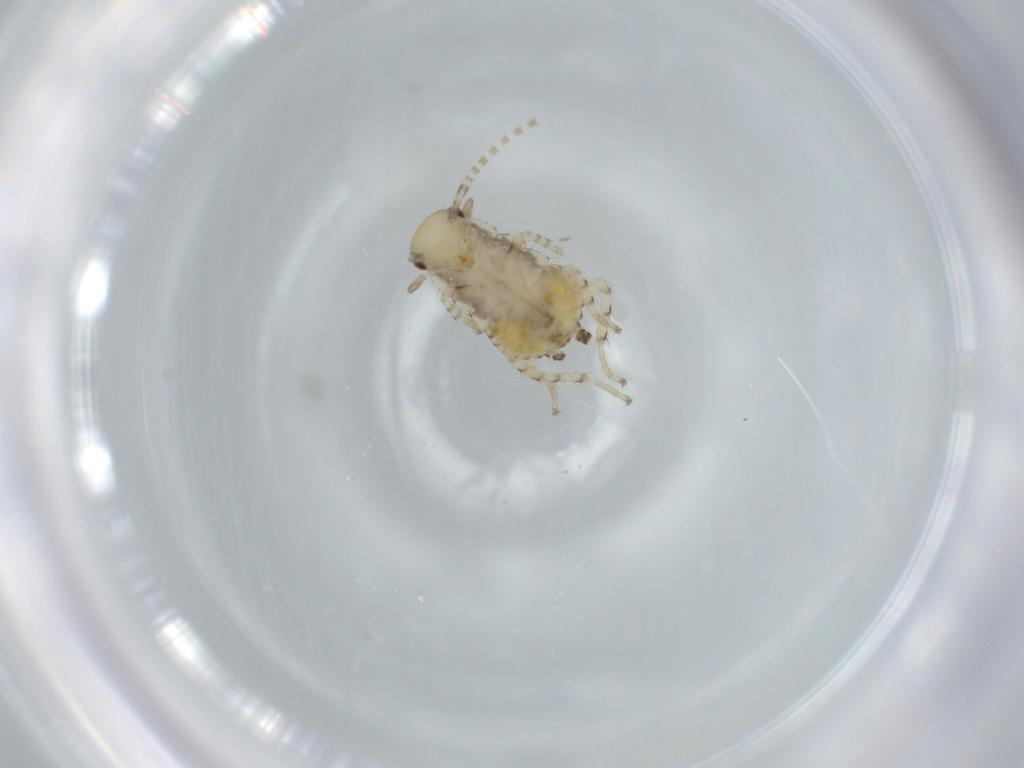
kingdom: Animalia
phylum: Arthropoda
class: Insecta
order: Blattodea
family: Ectobiidae
